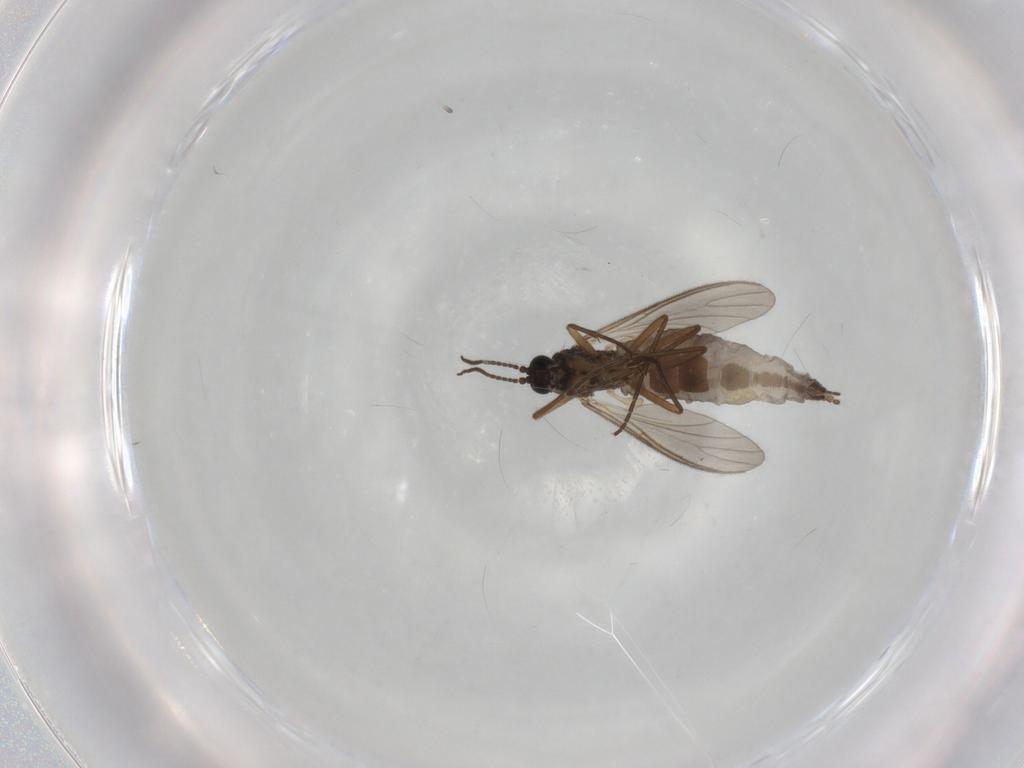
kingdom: Animalia
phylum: Arthropoda
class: Insecta
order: Diptera
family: Sciaridae
